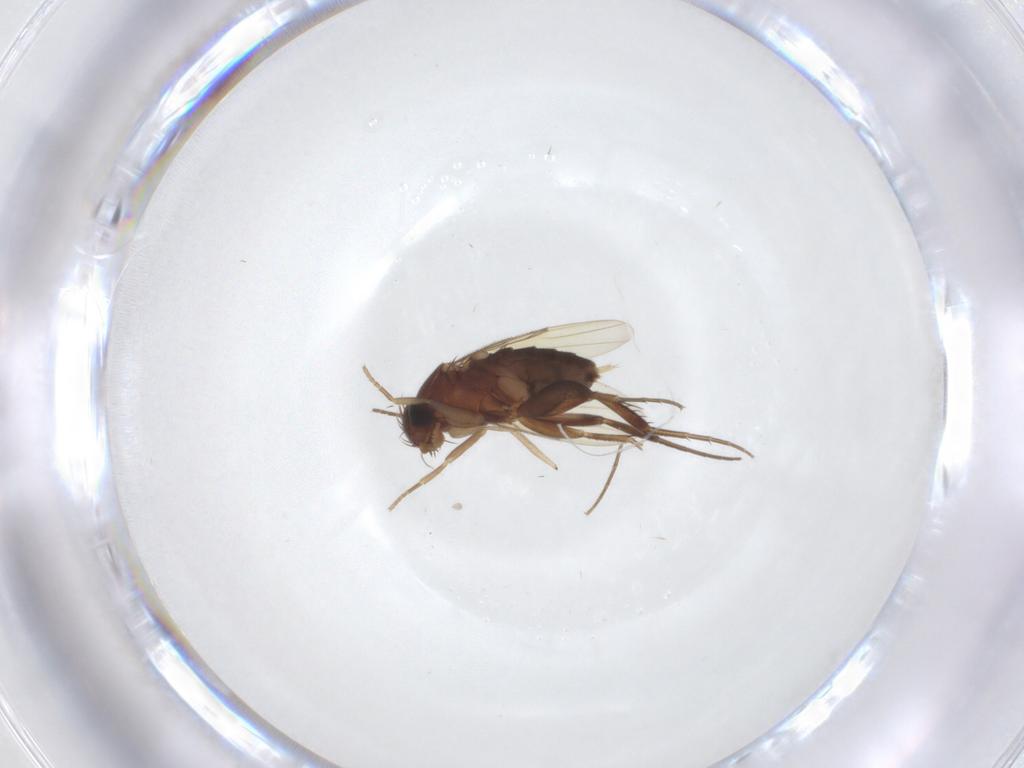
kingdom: Animalia
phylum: Arthropoda
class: Insecta
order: Diptera
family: Phoridae
